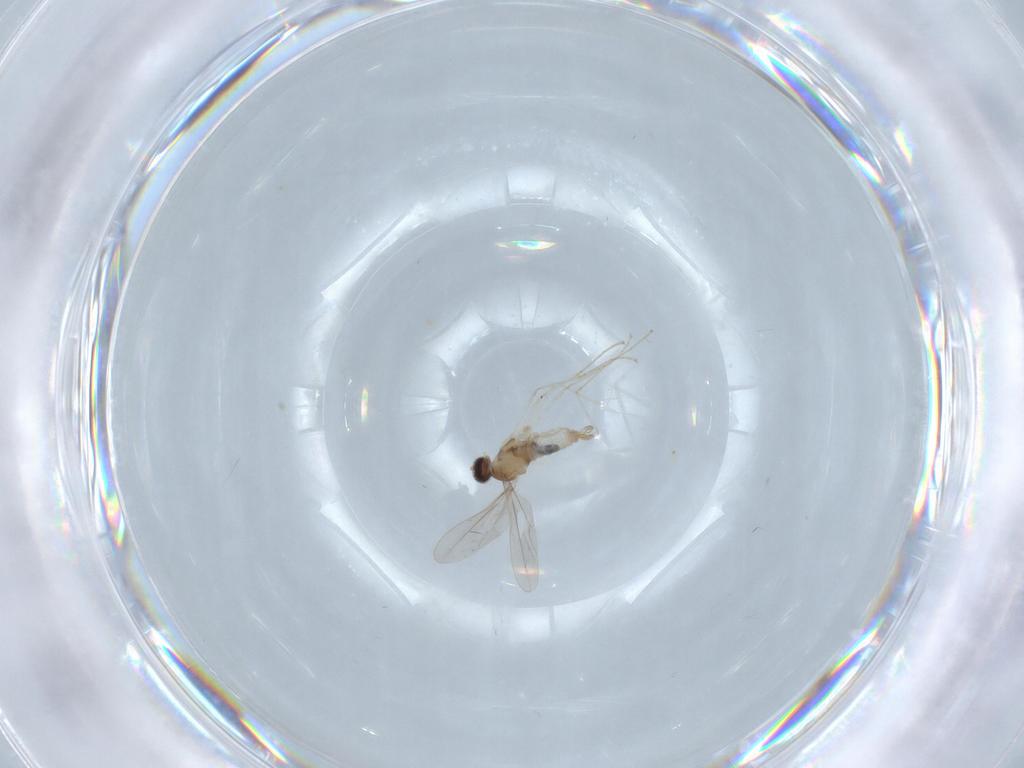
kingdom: Animalia
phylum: Arthropoda
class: Insecta
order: Diptera
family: Cecidomyiidae
